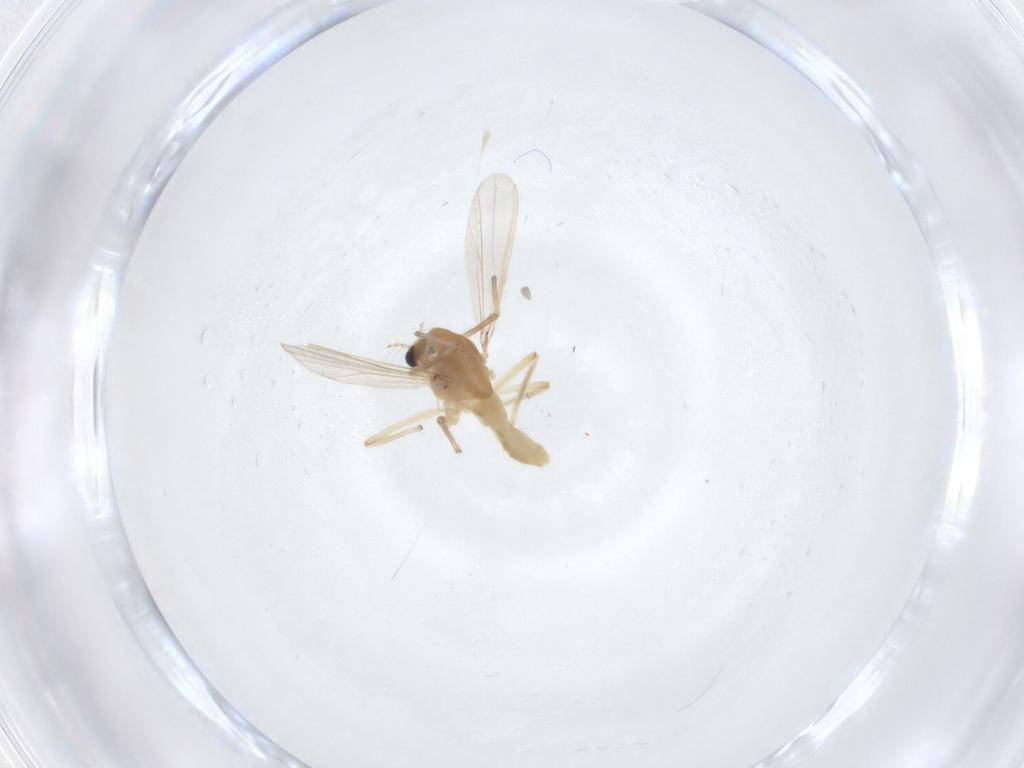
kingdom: Animalia
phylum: Arthropoda
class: Insecta
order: Diptera
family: Chironomidae
